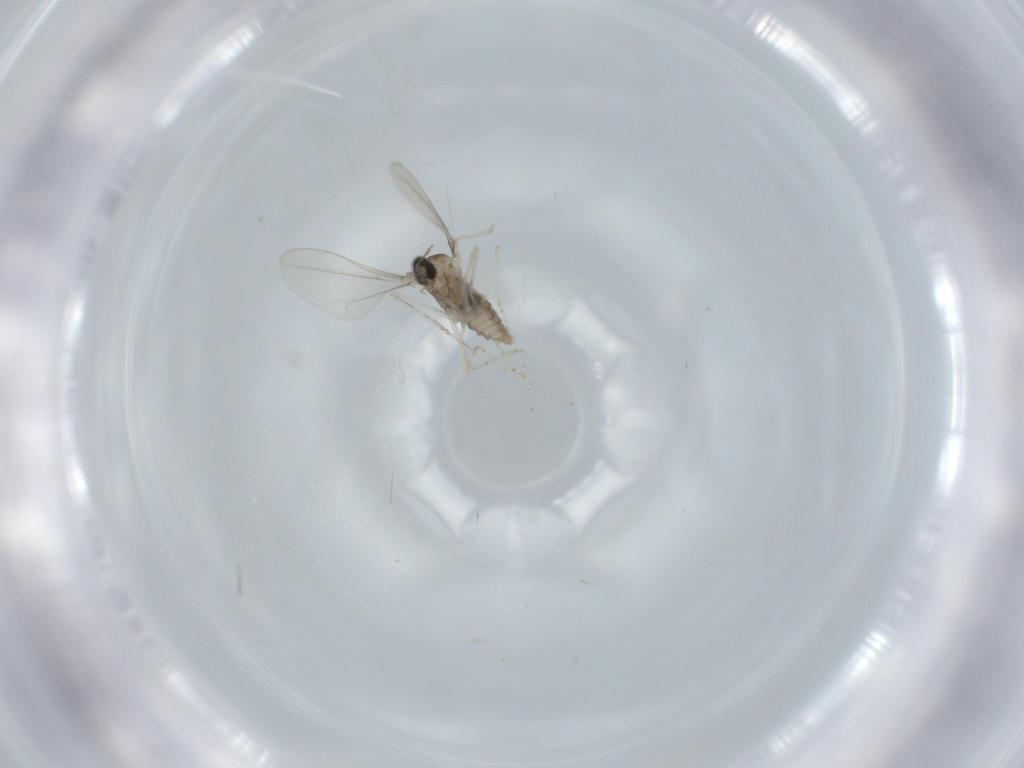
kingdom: Animalia
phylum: Arthropoda
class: Insecta
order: Diptera
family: Cecidomyiidae
